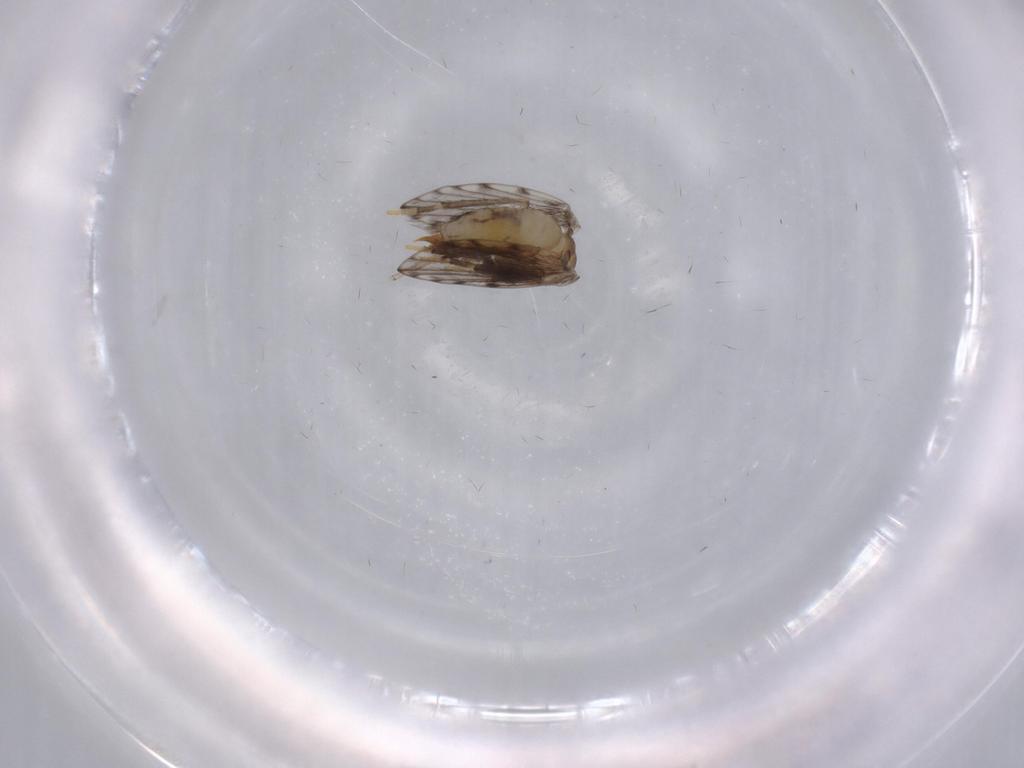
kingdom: Animalia
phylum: Arthropoda
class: Insecta
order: Diptera
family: Psychodidae
